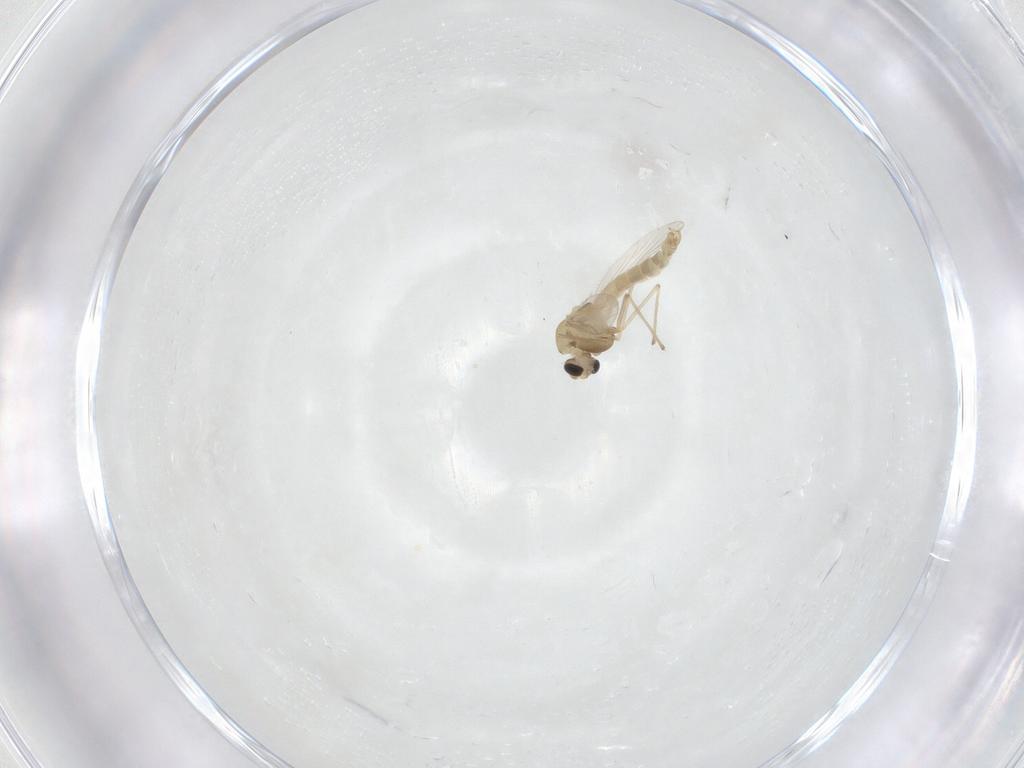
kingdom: Animalia
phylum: Arthropoda
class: Insecta
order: Diptera
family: Chironomidae
